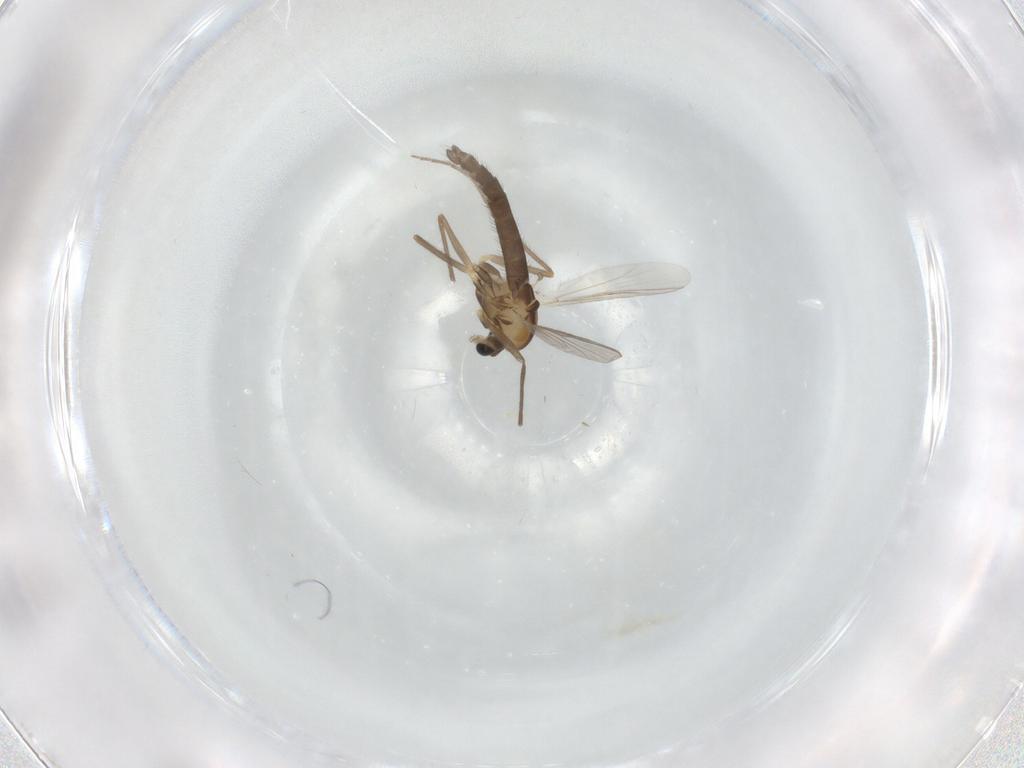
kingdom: Animalia
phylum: Arthropoda
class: Insecta
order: Diptera
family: Chironomidae
